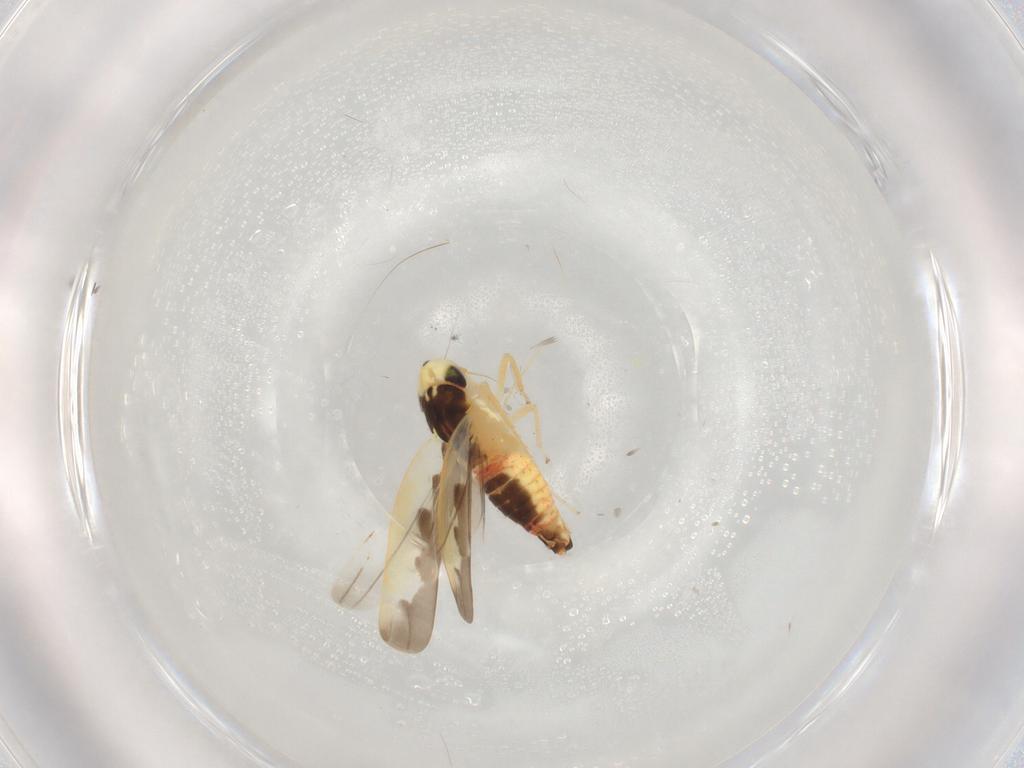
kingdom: Animalia
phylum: Arthropoda
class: Insecta
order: Hemiptera
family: Cicadellidae
